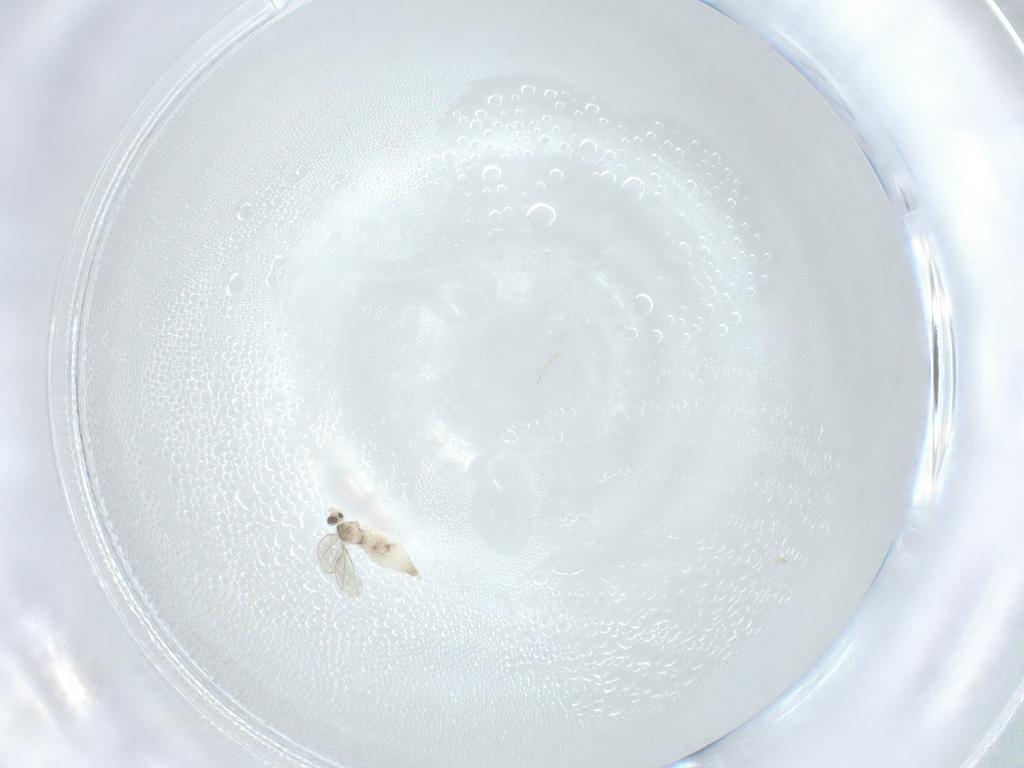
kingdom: Animalia
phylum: Arthropoda
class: Insecta
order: Diptera
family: Cecidomyiidae
